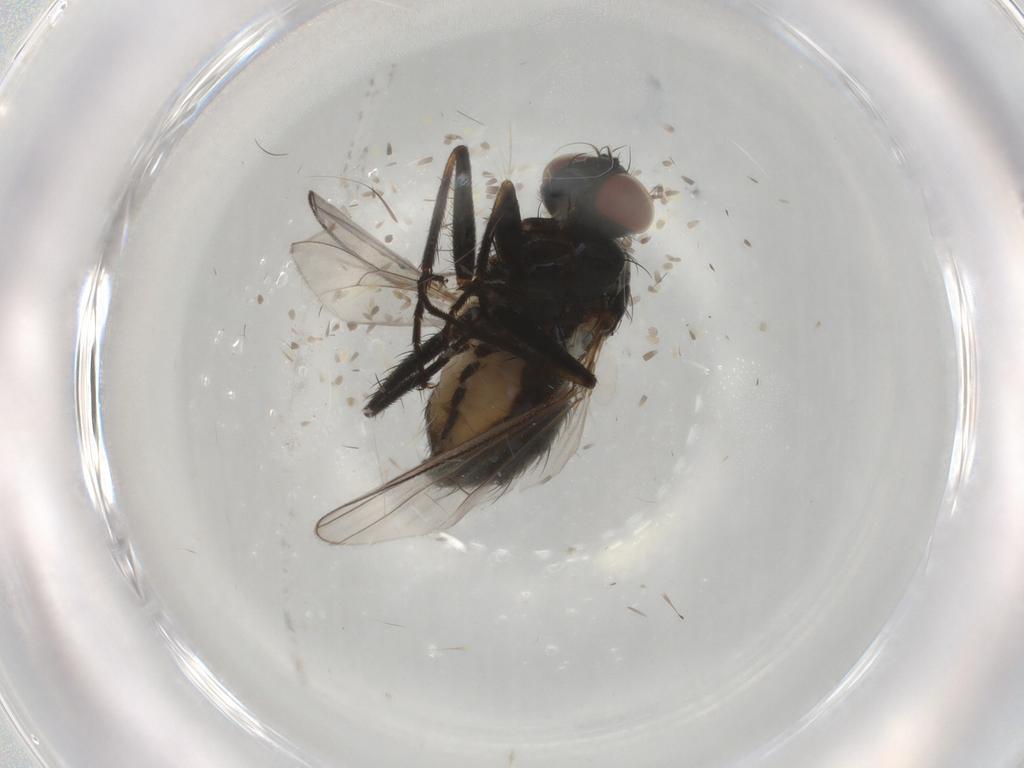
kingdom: Animalia
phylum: Arthropoda
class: Insecta
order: Diptera
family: Muscidae
